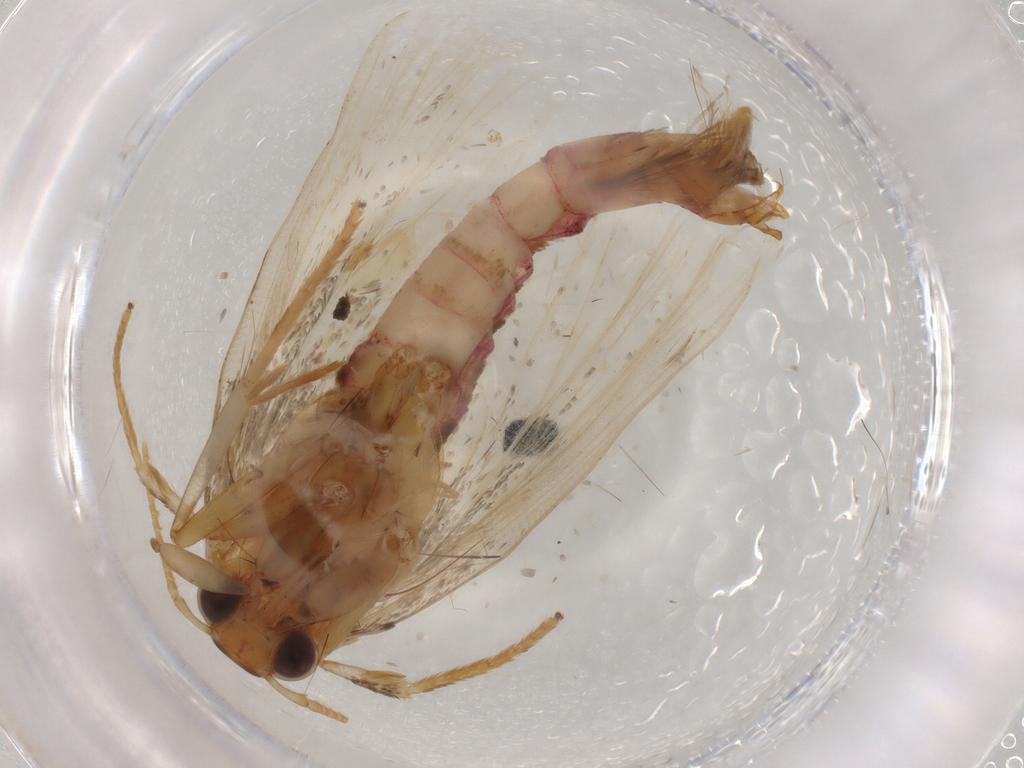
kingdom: Animalia
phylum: Arthropoda
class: Insecta
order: Lepidoptera
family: Lecithoceridae
